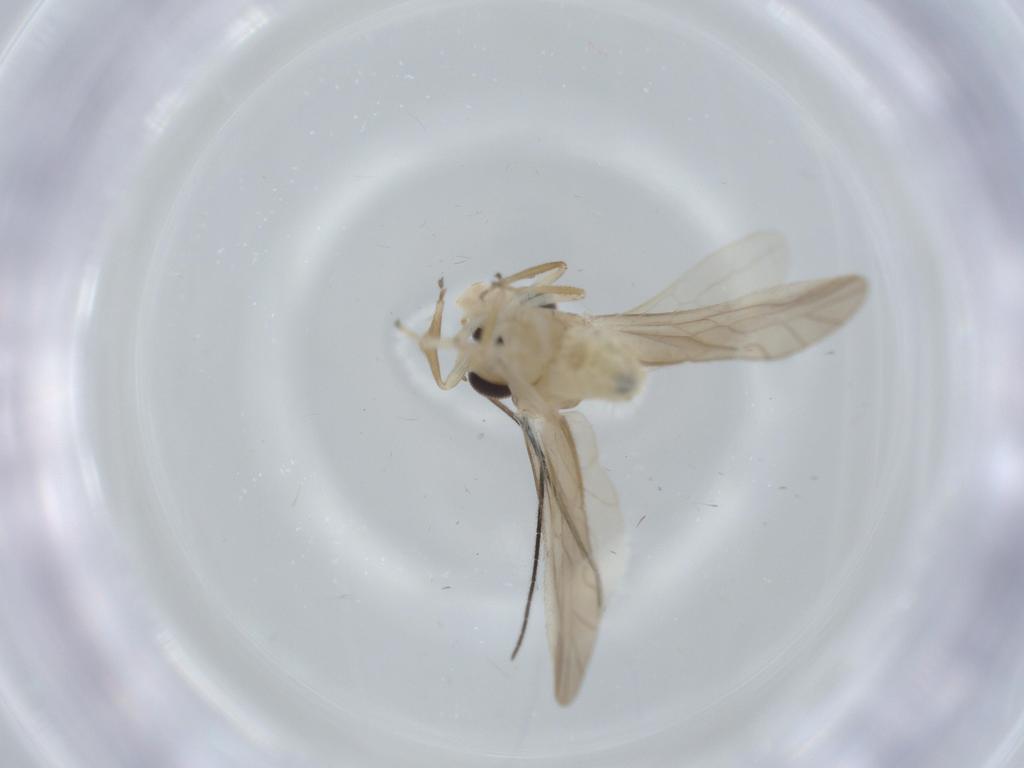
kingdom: Animalia
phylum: Arthropoda
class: Insecta
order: Psocodea
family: Caeciliusidae
